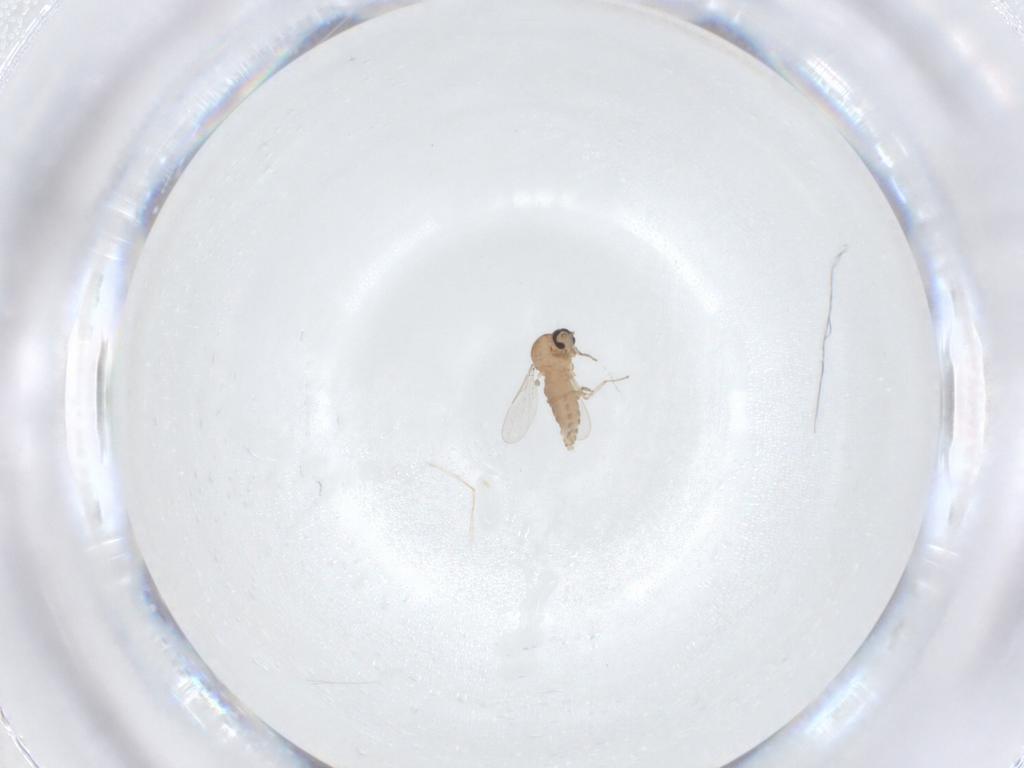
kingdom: Animalia
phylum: Arthropoda
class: Insecta
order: Diptera
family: Ceratopogonidae
